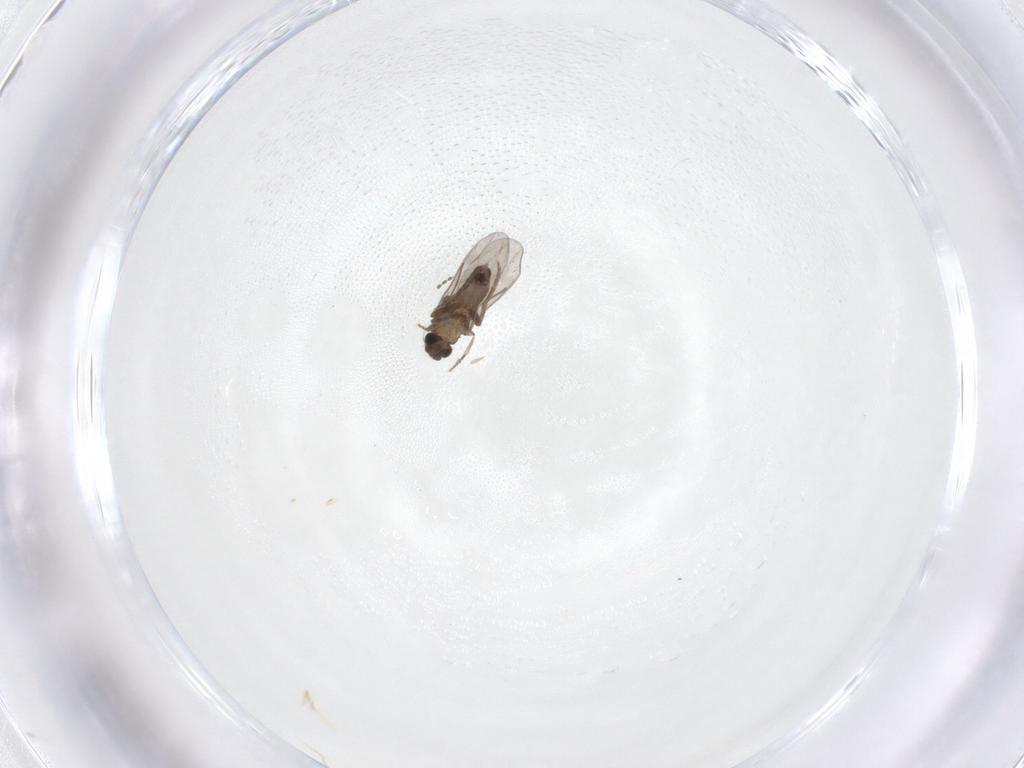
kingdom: Animalia
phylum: Arthropoda
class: Insecta
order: Diptera
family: Cecidomyiidae
